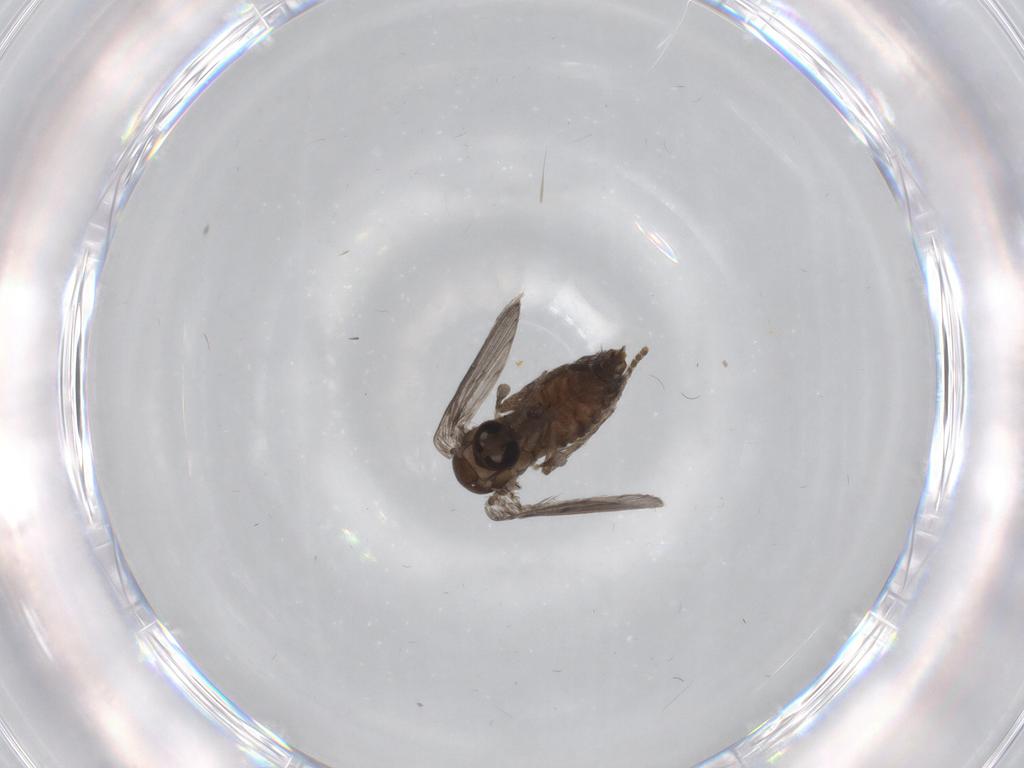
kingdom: Animalia
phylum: Arthropoda
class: Insecta
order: Diptera
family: Psychodidae
